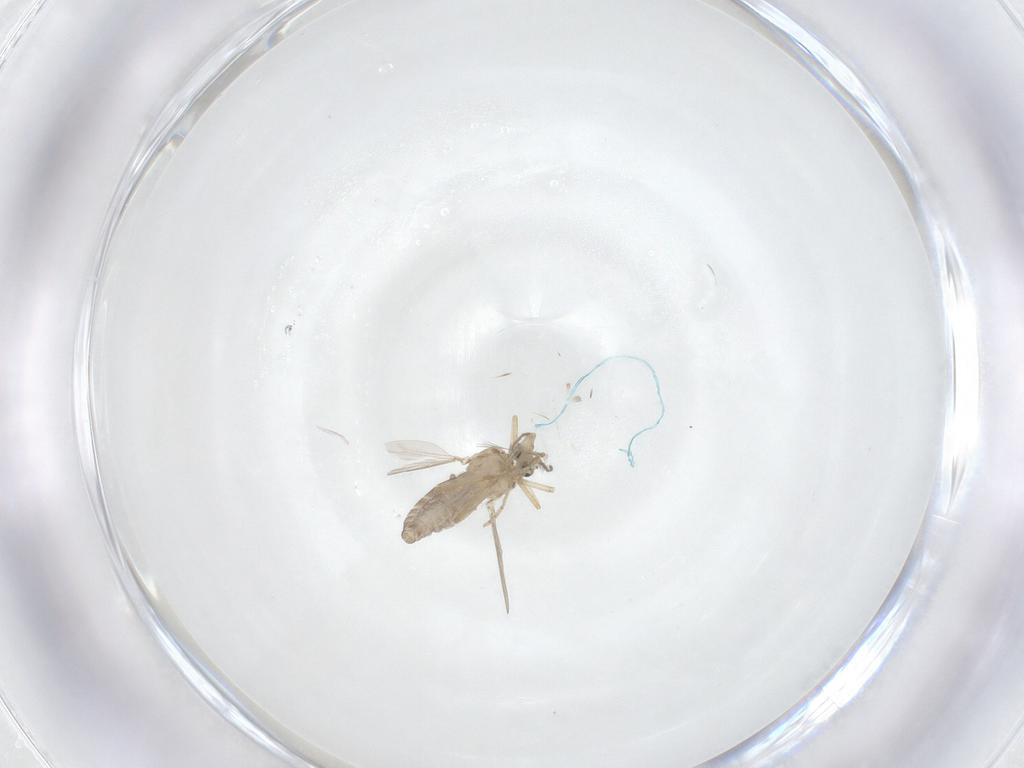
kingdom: Animalia
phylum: Arthropoda
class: Insecta
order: Diptera
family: Ceratopogonidae
